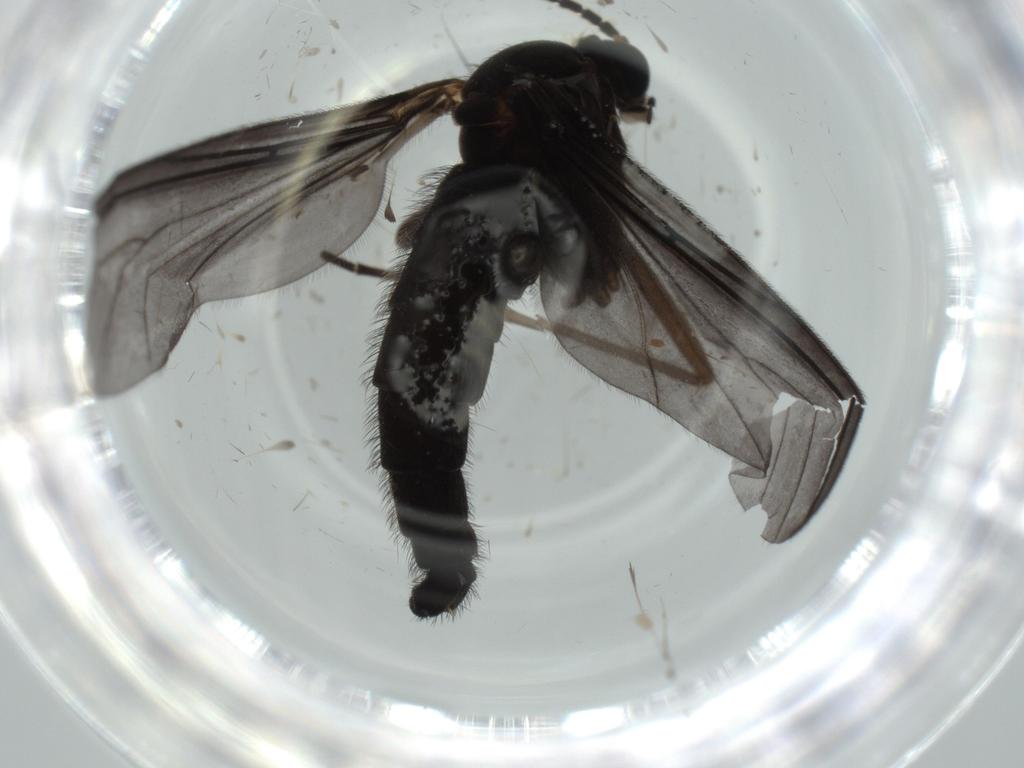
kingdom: Animalia
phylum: Arthropoda
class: Insecta
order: Diptera
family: Sciaridae
